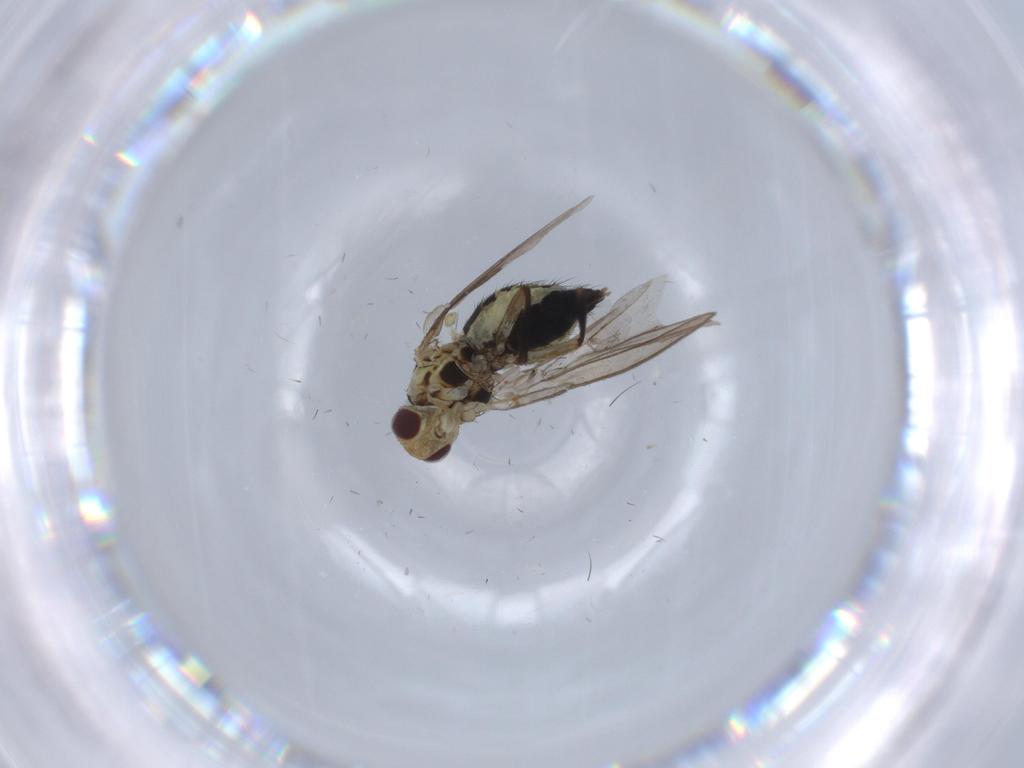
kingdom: Animalia
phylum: Arthropoda
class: Insecta
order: Diptera
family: Agromyzidae
